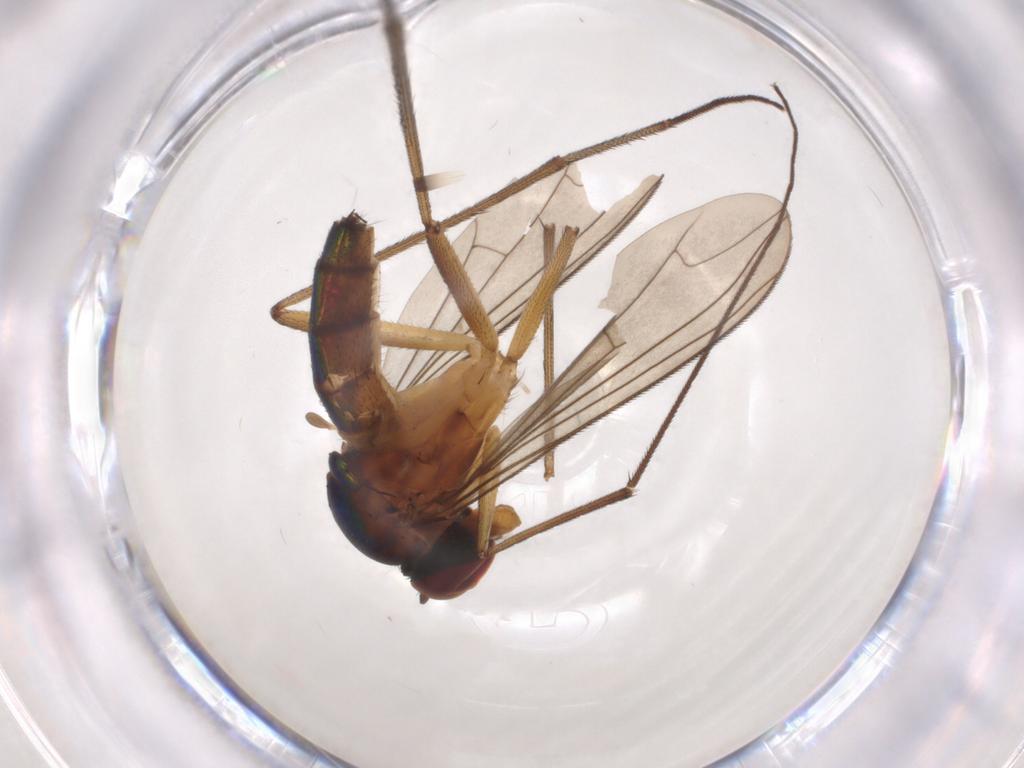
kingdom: Animalia
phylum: Arthropoda
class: Insecta
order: Diptera
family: Dolichopodidae
